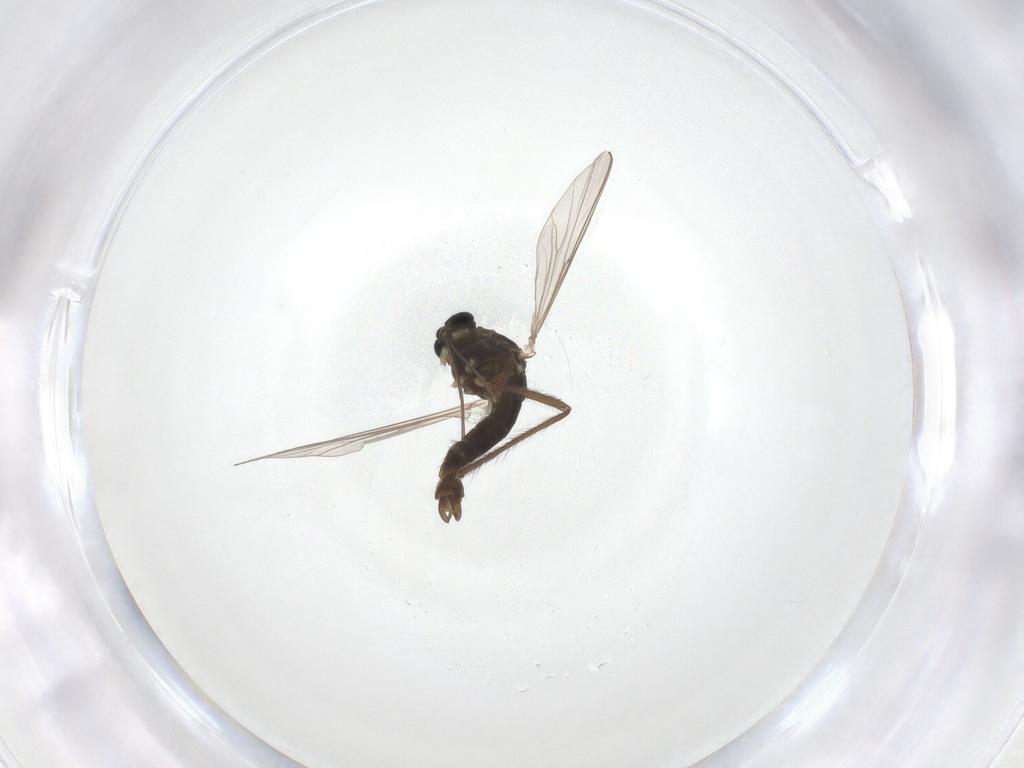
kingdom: Animalia
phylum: Arthropoda
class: Insecta
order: Diptera
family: Chironomidae
